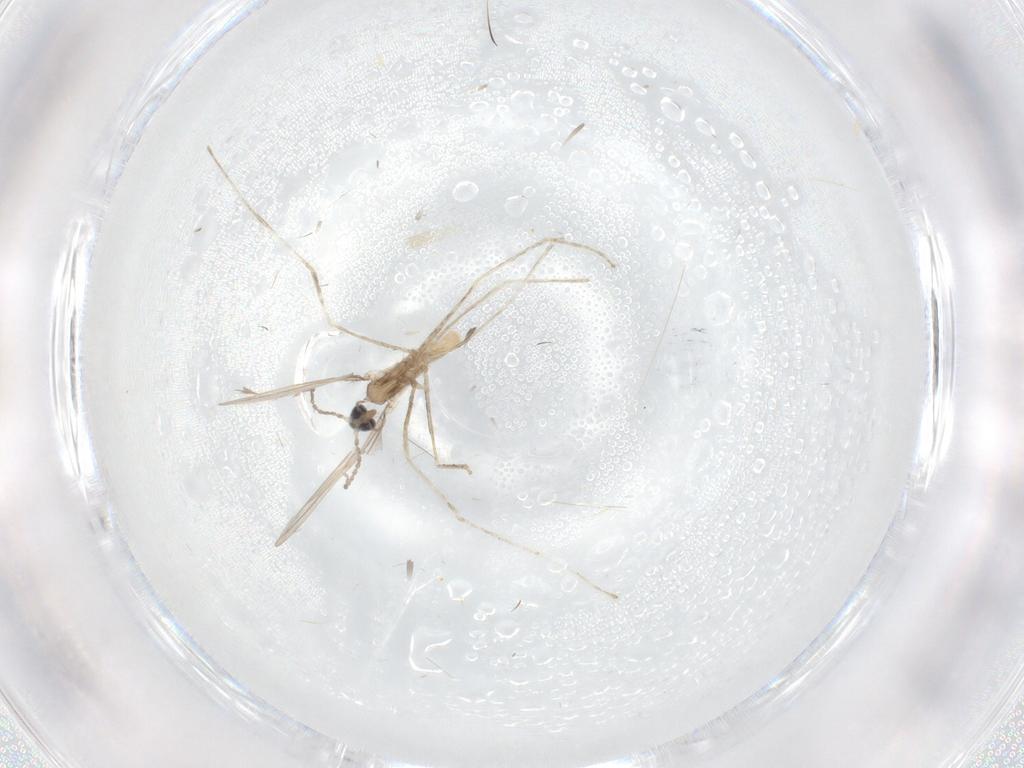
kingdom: Animalia
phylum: Arthropoda
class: Insecta
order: Diptera
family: Cecidomyiidae
